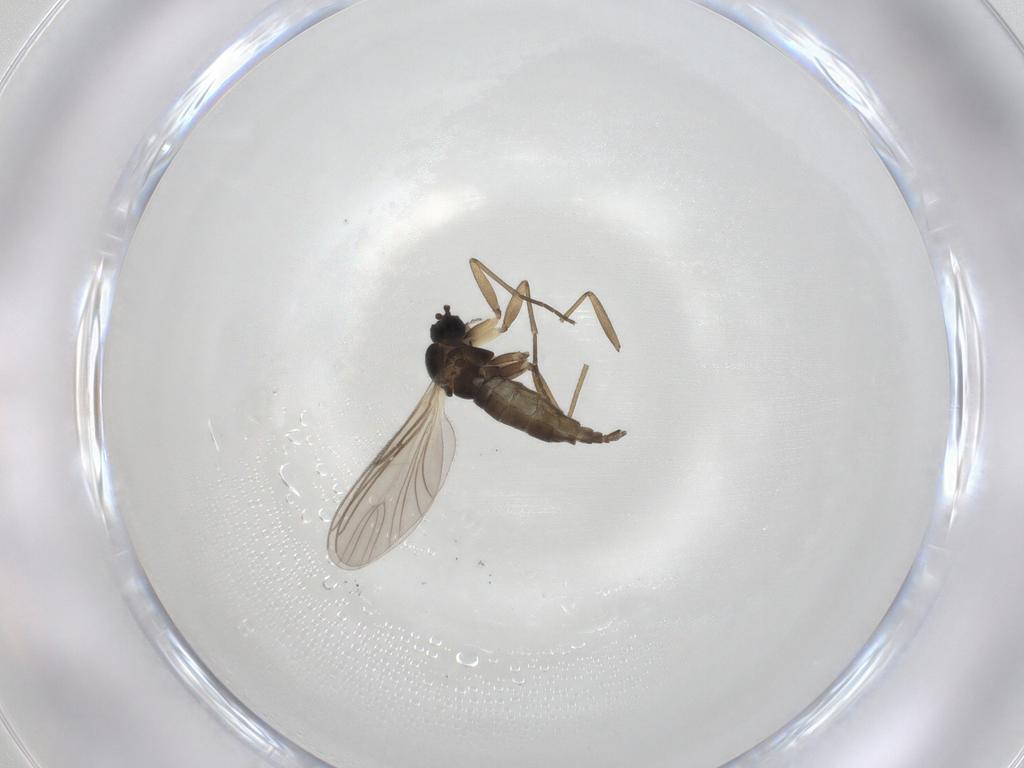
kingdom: Animalia
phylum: Arthropoda
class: Insecta
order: Diptera
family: Sciaridae
